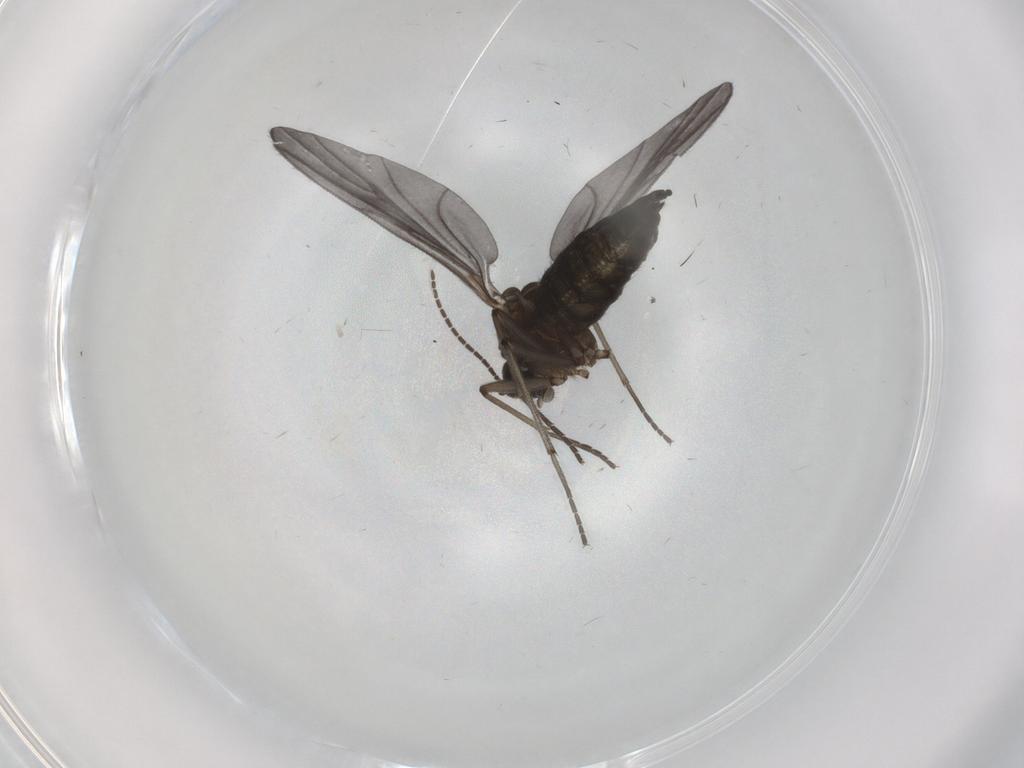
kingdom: Animalia
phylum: Arthropoda
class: Insecta
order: Diptera
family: Sciaridae
